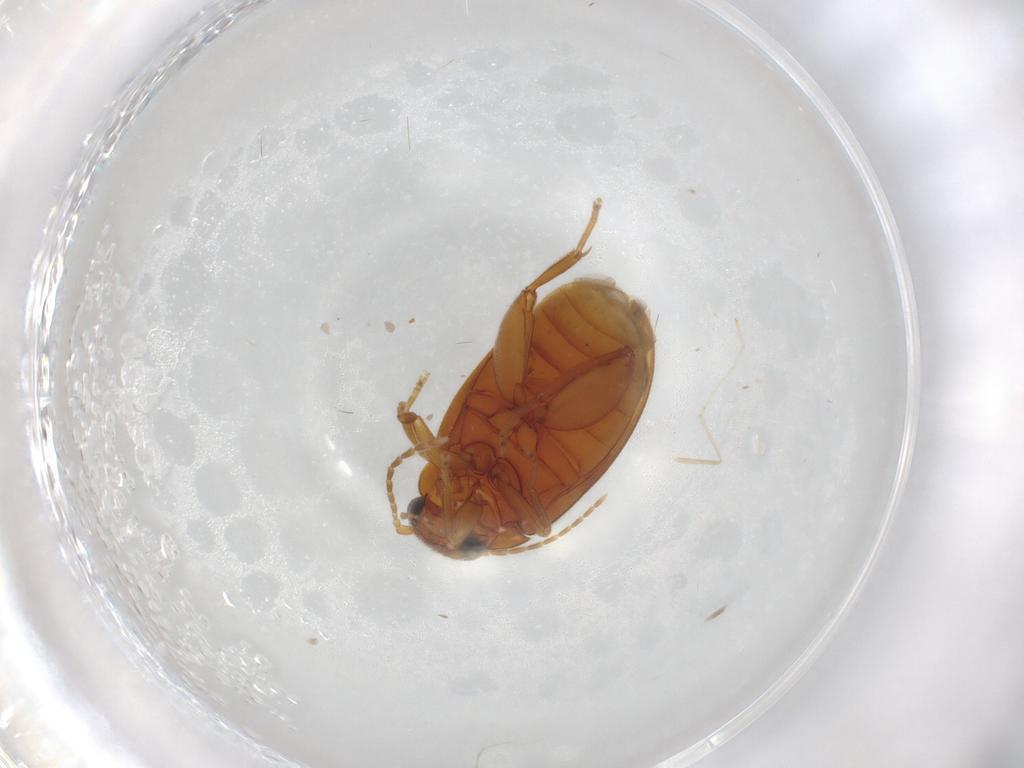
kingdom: Animalia
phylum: Arthropoda
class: Insecta
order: Coleoptera
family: Scirtidae
